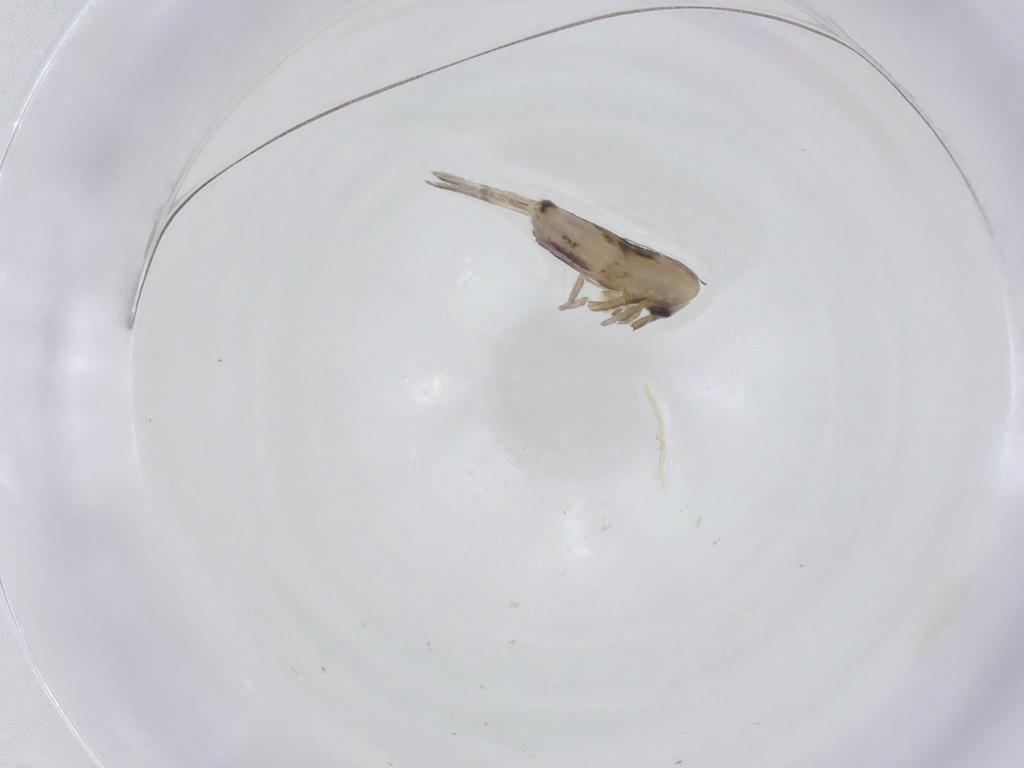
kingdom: Animalia
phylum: Arthropoda
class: Collembola
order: Entomobryomorpha
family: Entomobryidae
